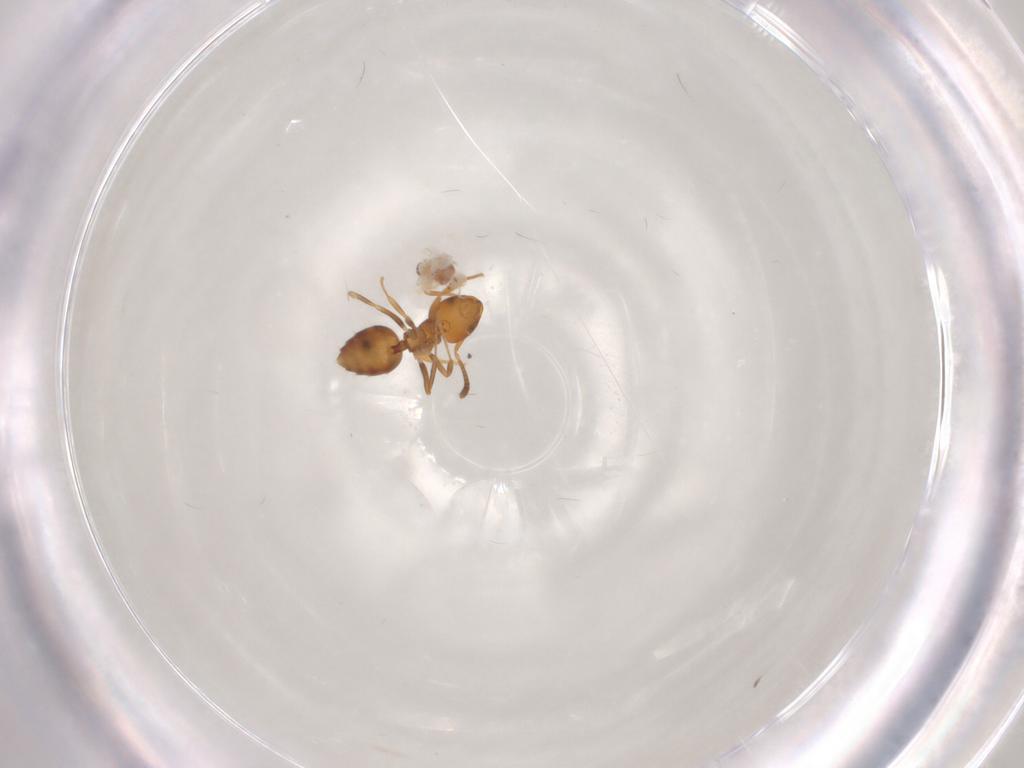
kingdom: Animalia
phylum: Arthropoda
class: Insecta
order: Hymenoptera
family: Formicidae
